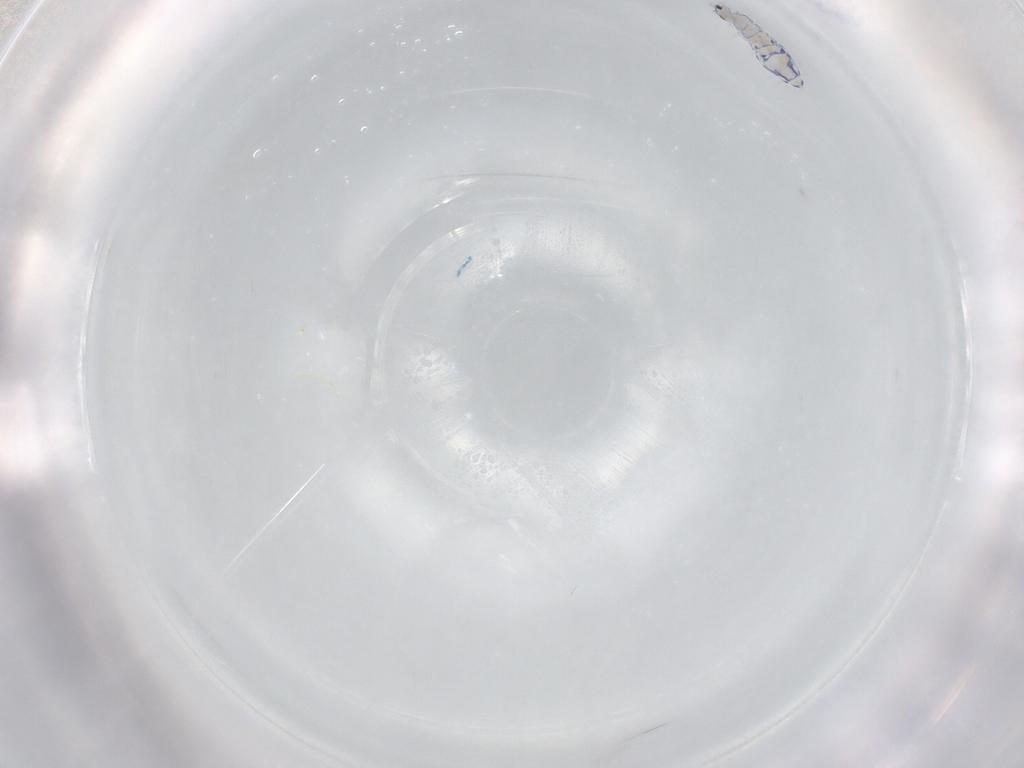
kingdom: Animalia
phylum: Arthropoda
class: Collembola
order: Entomobryomorpha
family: Entomobryidae
